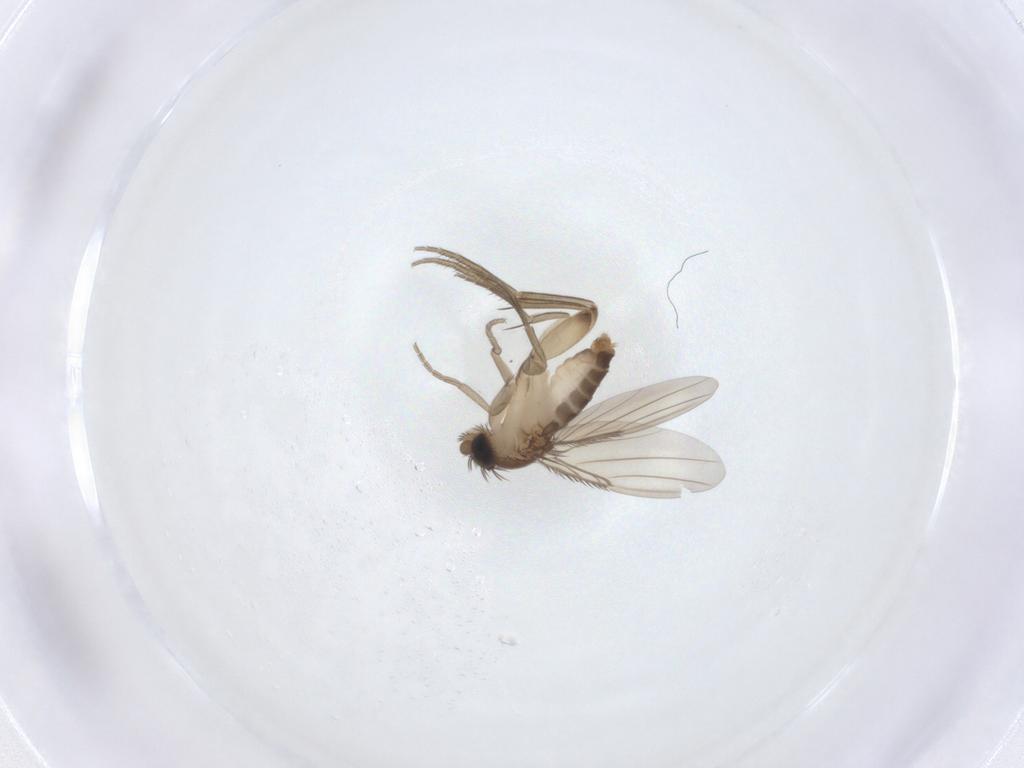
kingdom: Animalia
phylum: Arthropoda
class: Insecta
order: Diptera
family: Phoridae
